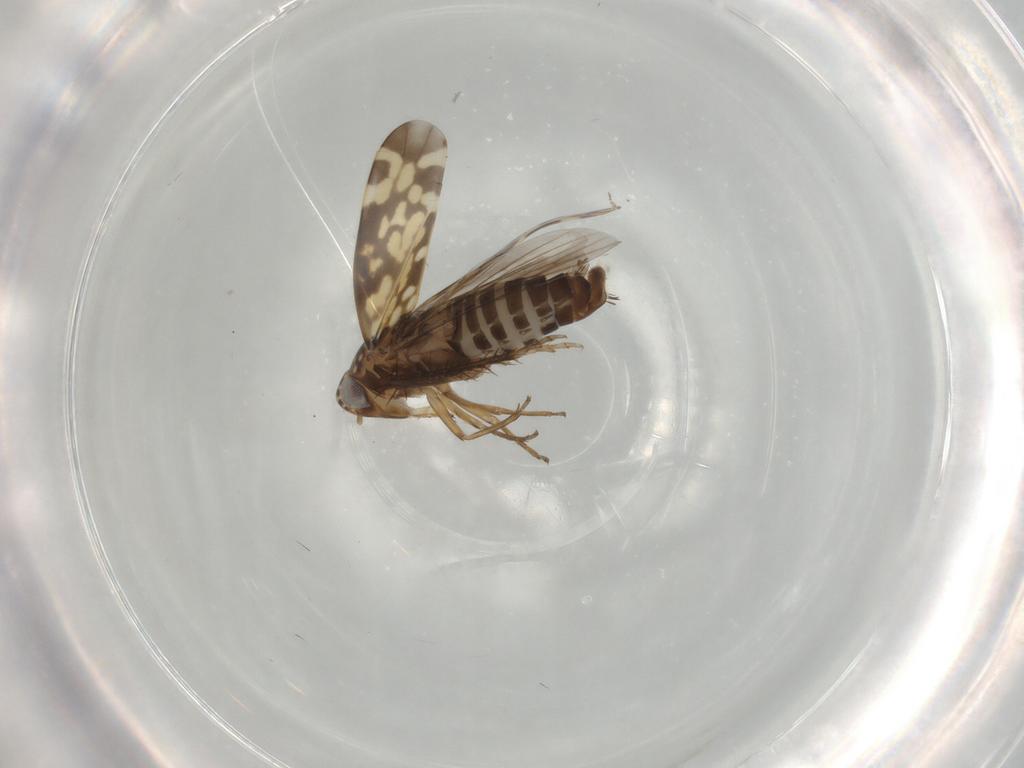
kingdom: Animalia
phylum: Arthropoda
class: Insecta
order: Hemiptera
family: Cicadellidae
